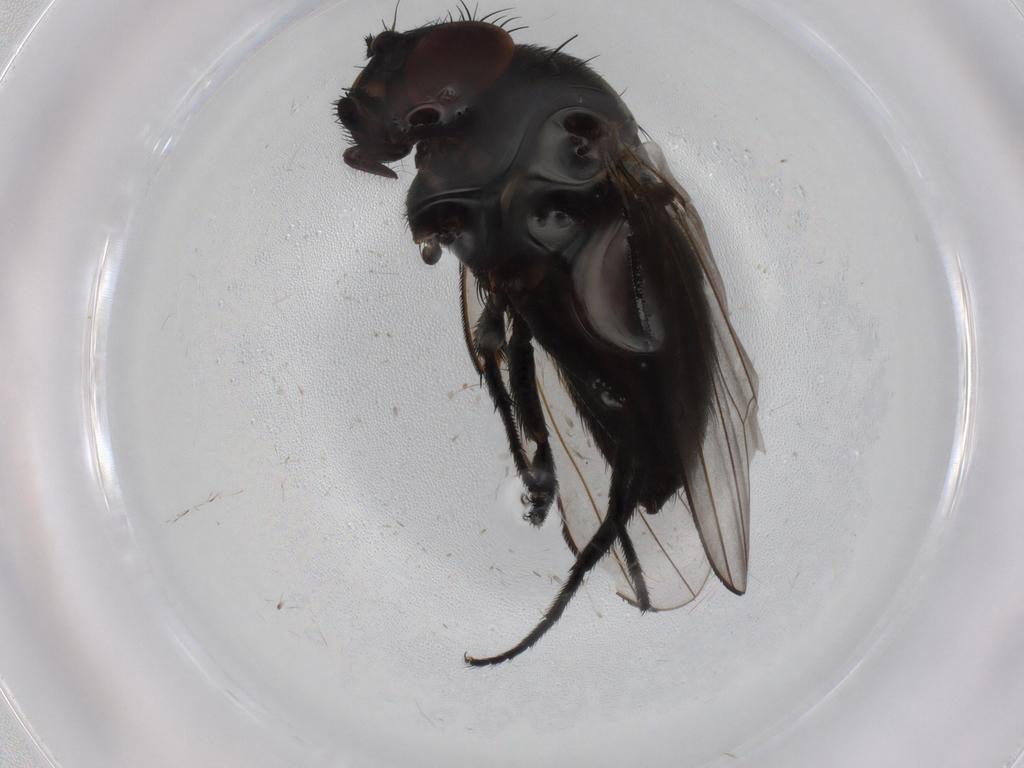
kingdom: Animalia
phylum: Arthropoda
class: Insecta
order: Diptera
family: Milichiidae
